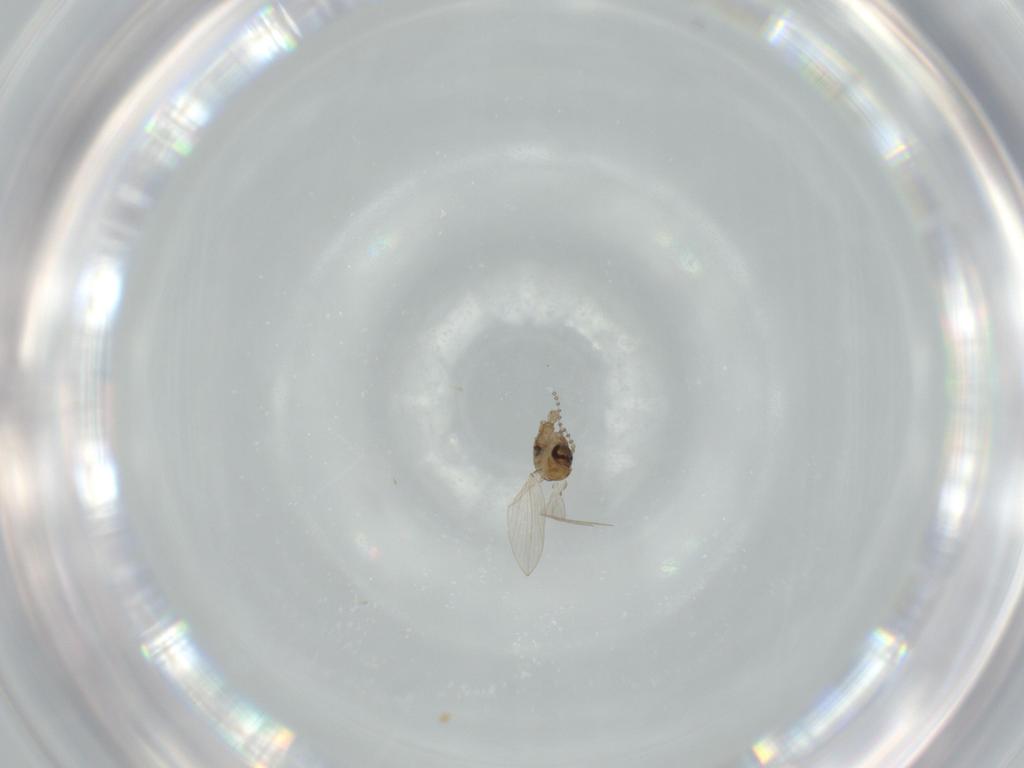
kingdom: Animalia
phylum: Arthropoda
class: Insecta
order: Diptera
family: Psychodidae
